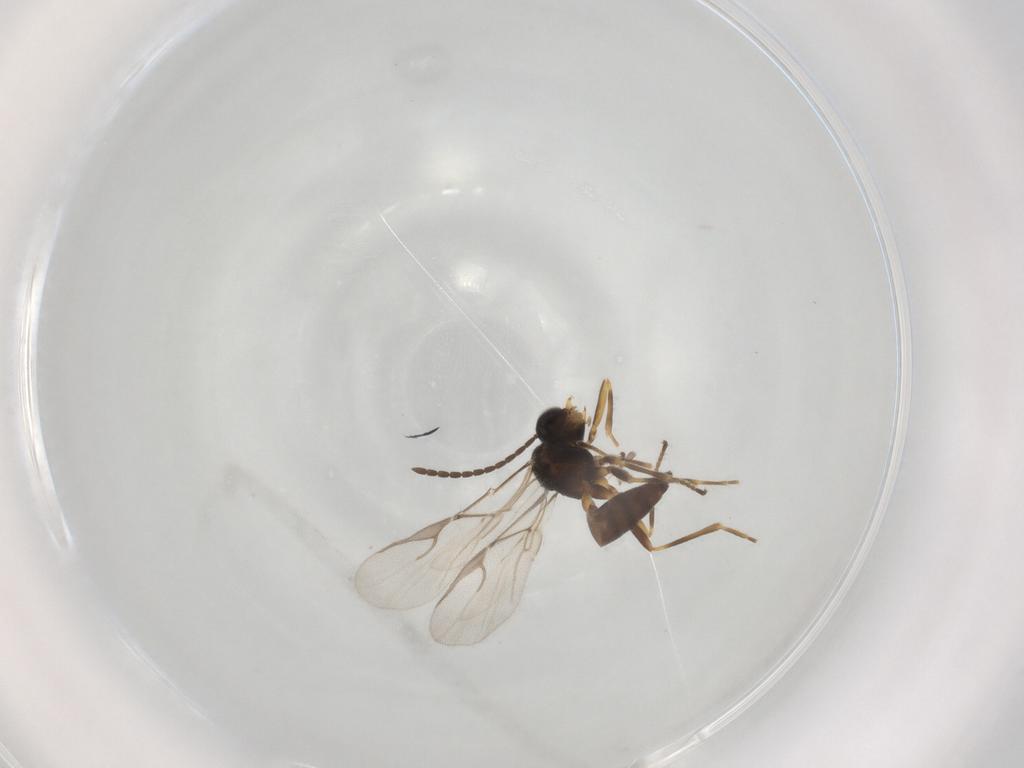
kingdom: Animalia
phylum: Arthropoda
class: Insecta
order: Hymenoptera
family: Braconidae
